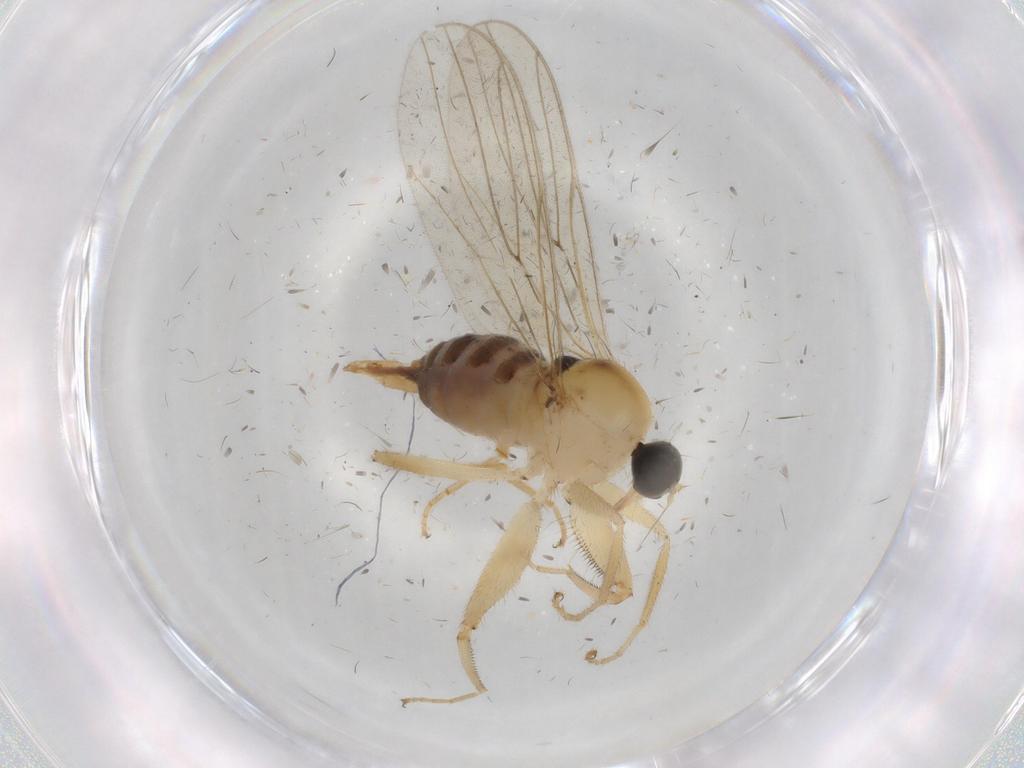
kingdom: Animalia
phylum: Arthropoda
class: Insecta
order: Diptera
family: Hybotidae
